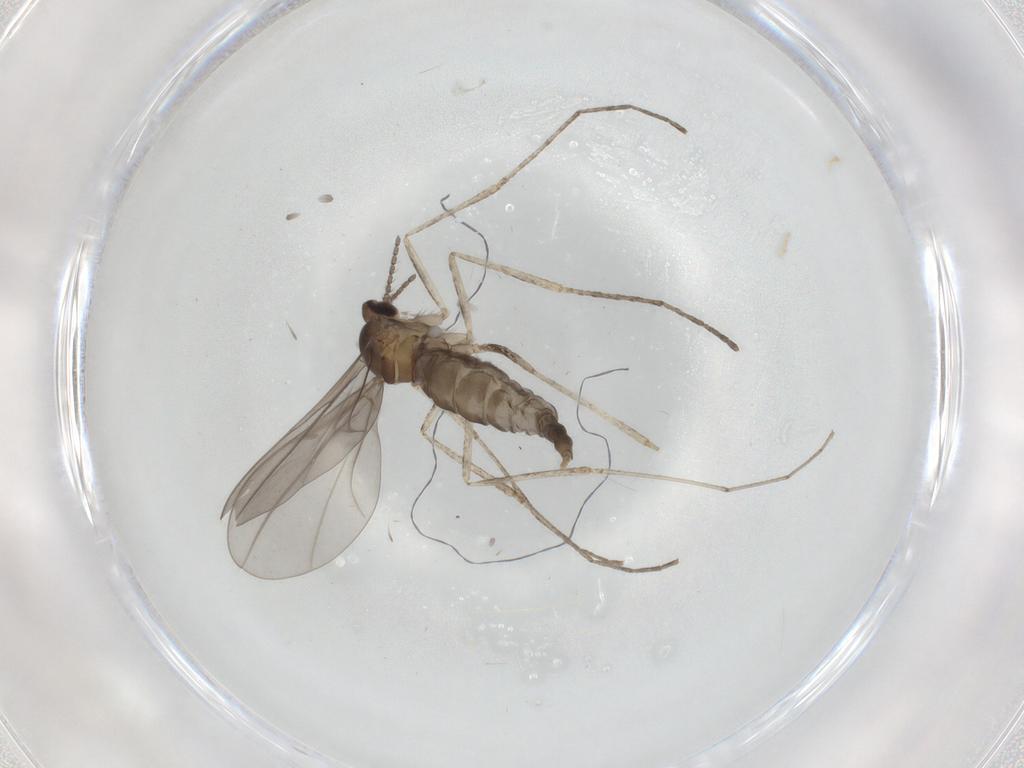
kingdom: Animalia
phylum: Arthropoda
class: Insecta
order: Diptera
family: Cecidomyiidae
